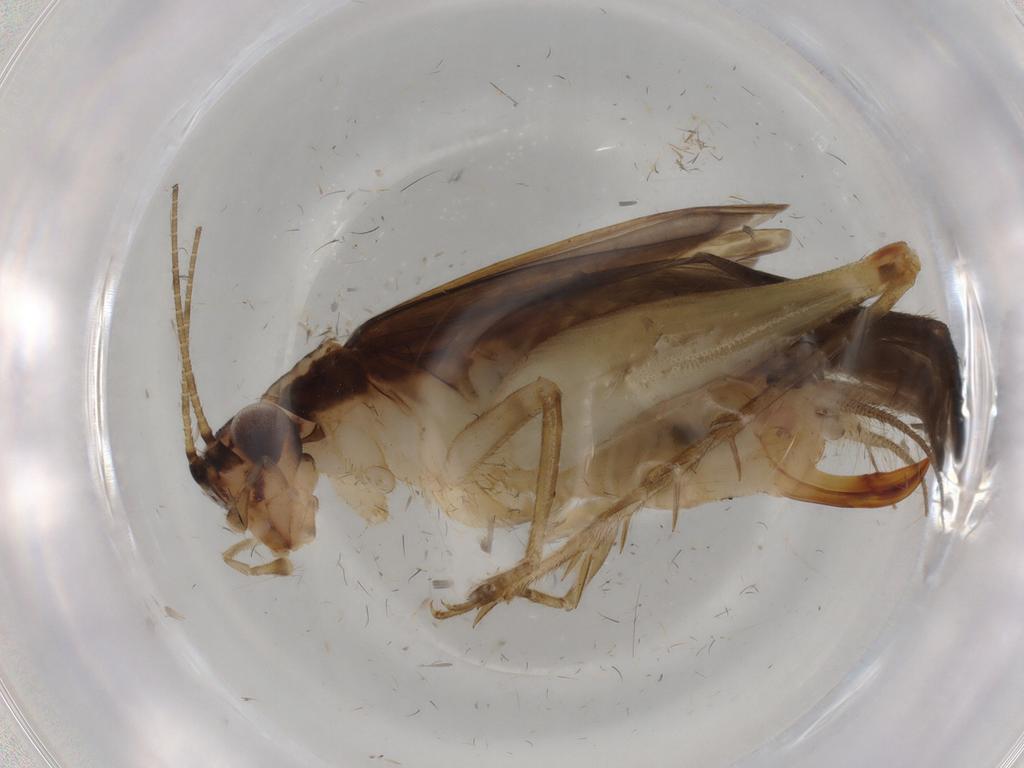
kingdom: Animalia
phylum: Arthropoda
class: Insecta
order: Orthoptera
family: Trigonidiidae
